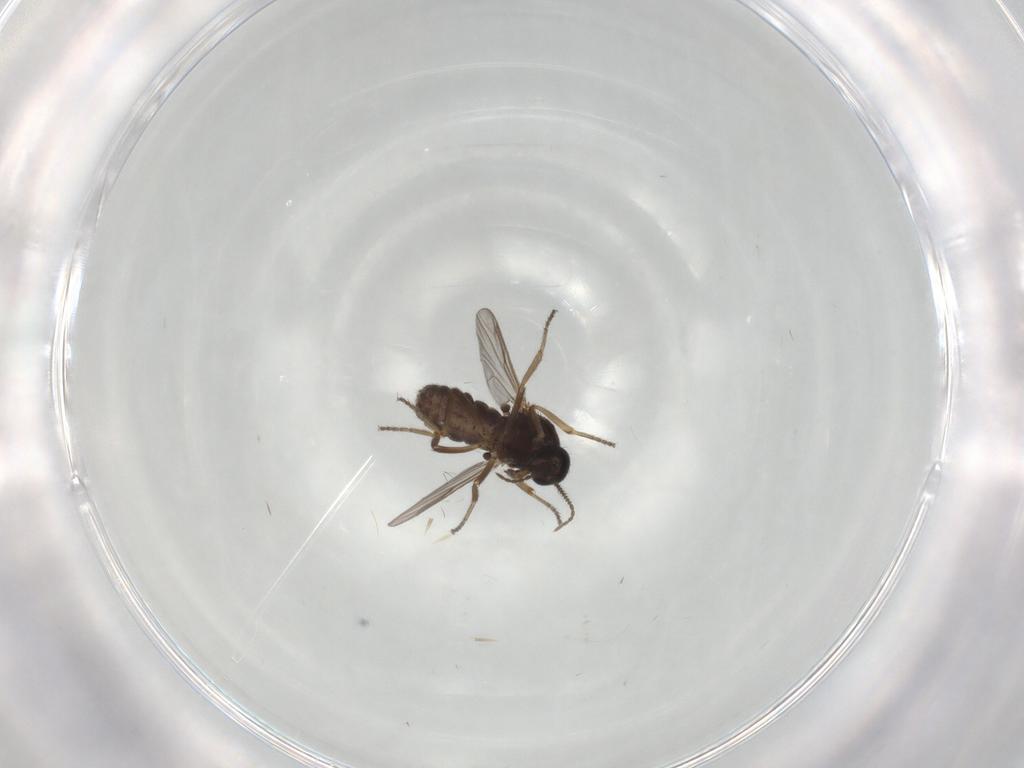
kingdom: Animalia
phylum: Arthropoda
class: Insecta
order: Diptera
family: Ceratopogonidae
